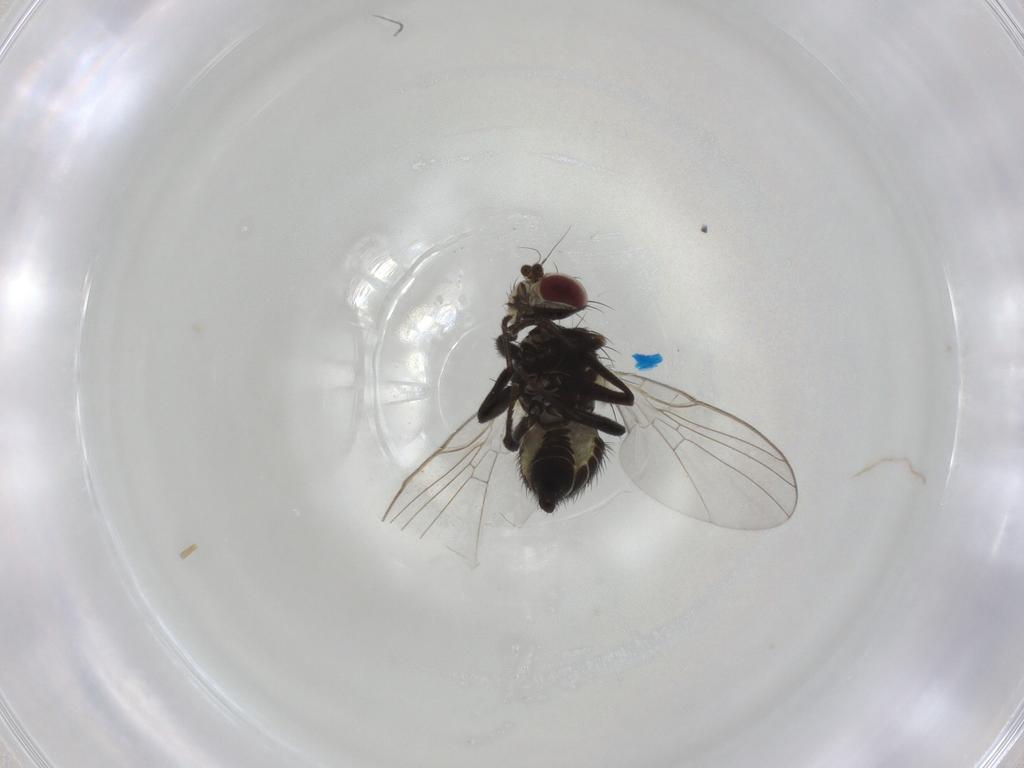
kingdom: Animalia
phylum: Arthropoda
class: Insecta
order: Diptera
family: Agromyzidae
